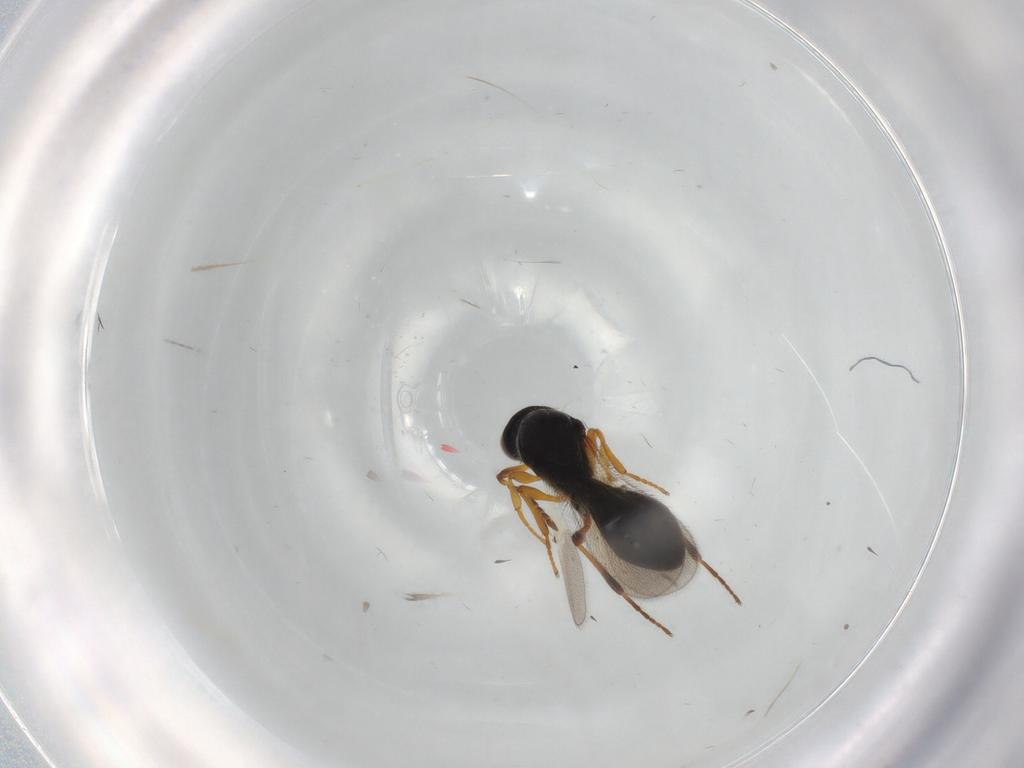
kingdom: Animalia
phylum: Arthropoda
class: Insecta
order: Hymenoptera
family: Platygastridae
